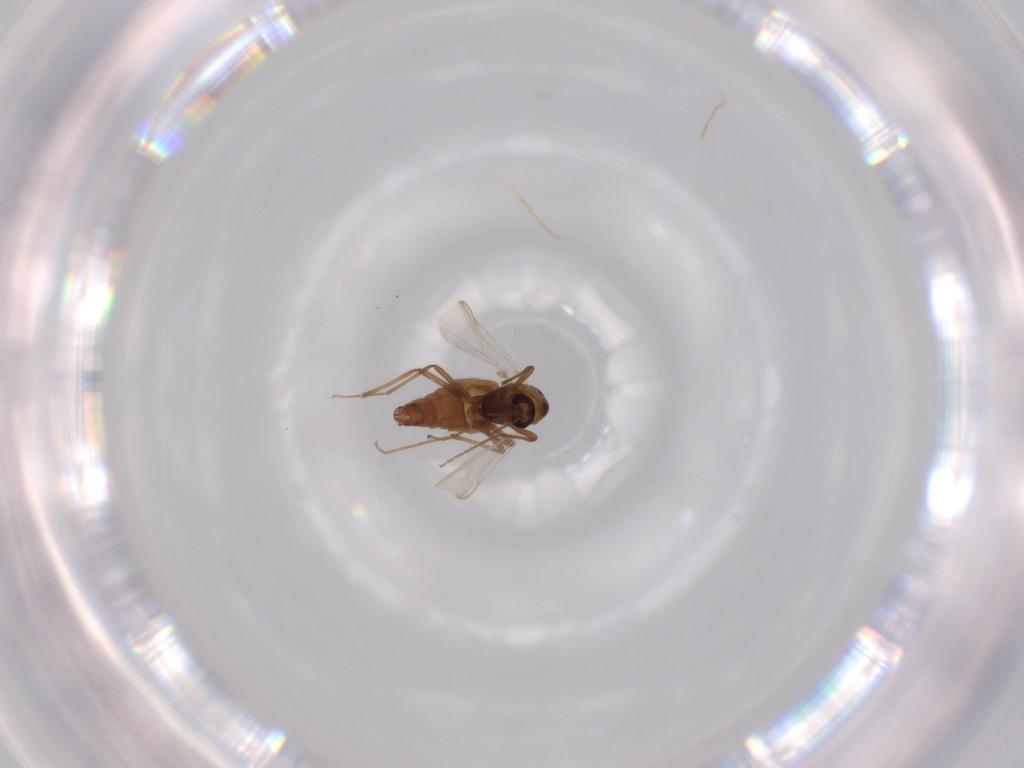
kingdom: Animalia
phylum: Arthropoda
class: Insecta
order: Diptera
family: Chironomidae
